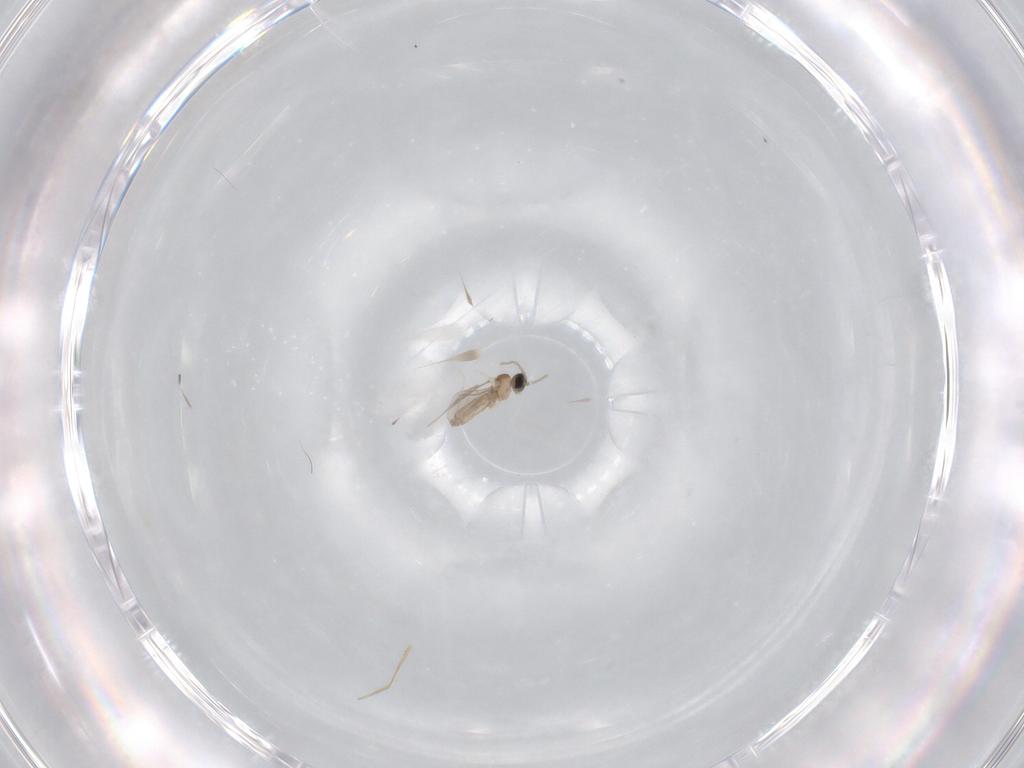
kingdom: Animalia
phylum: Arthropoda
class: Insecta
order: Diptera
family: Cecidomyiidae
